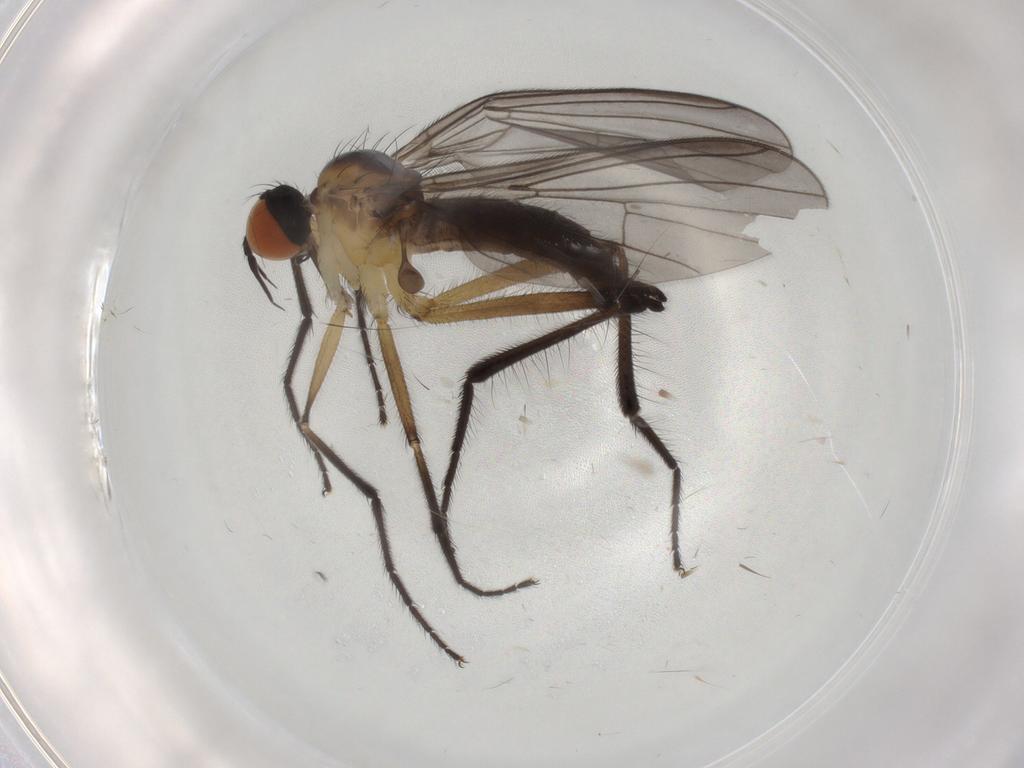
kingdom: Animalia
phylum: Arthropoda
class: Insecta
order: Diptera
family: Empididae
